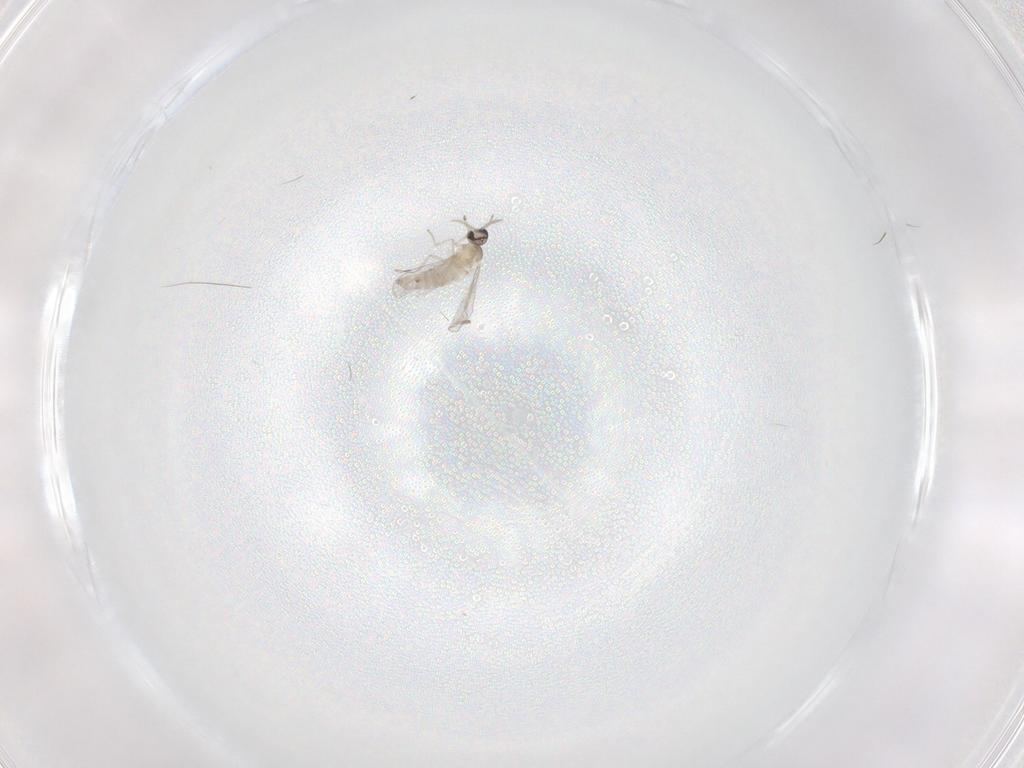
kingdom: Animalia
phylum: Arthropoda
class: Insecta
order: Diptera
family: Cecidomyiidae
